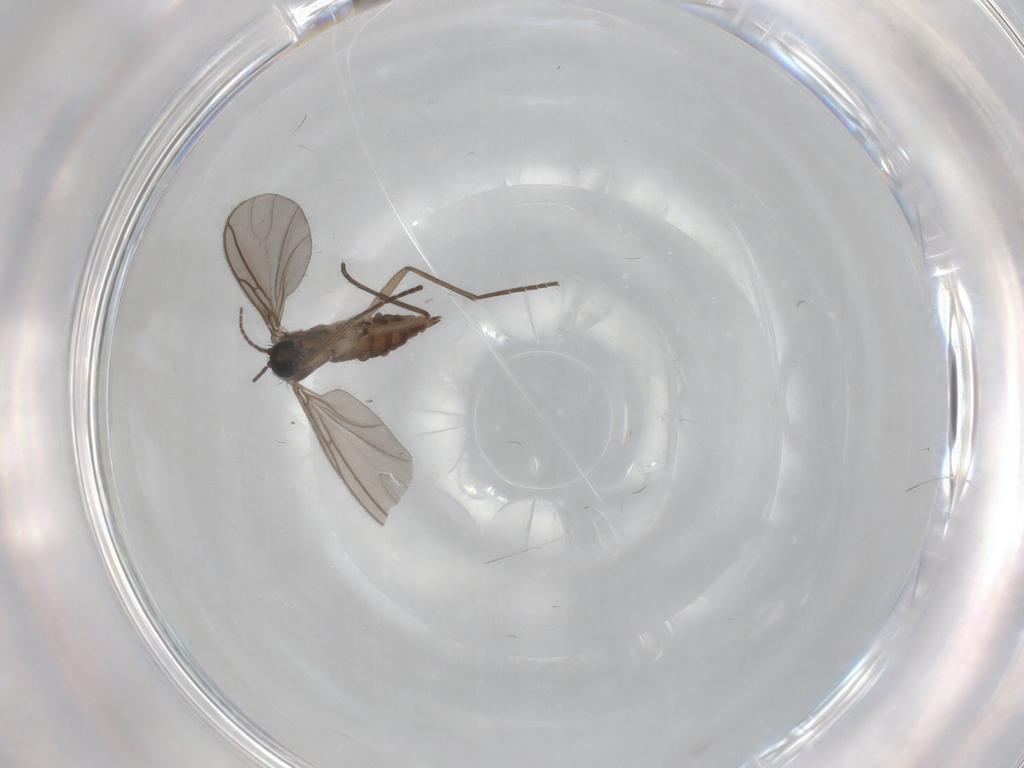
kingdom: Animalia
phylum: Arthropoda
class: Insecta
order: Diptera
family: Sciaridae
